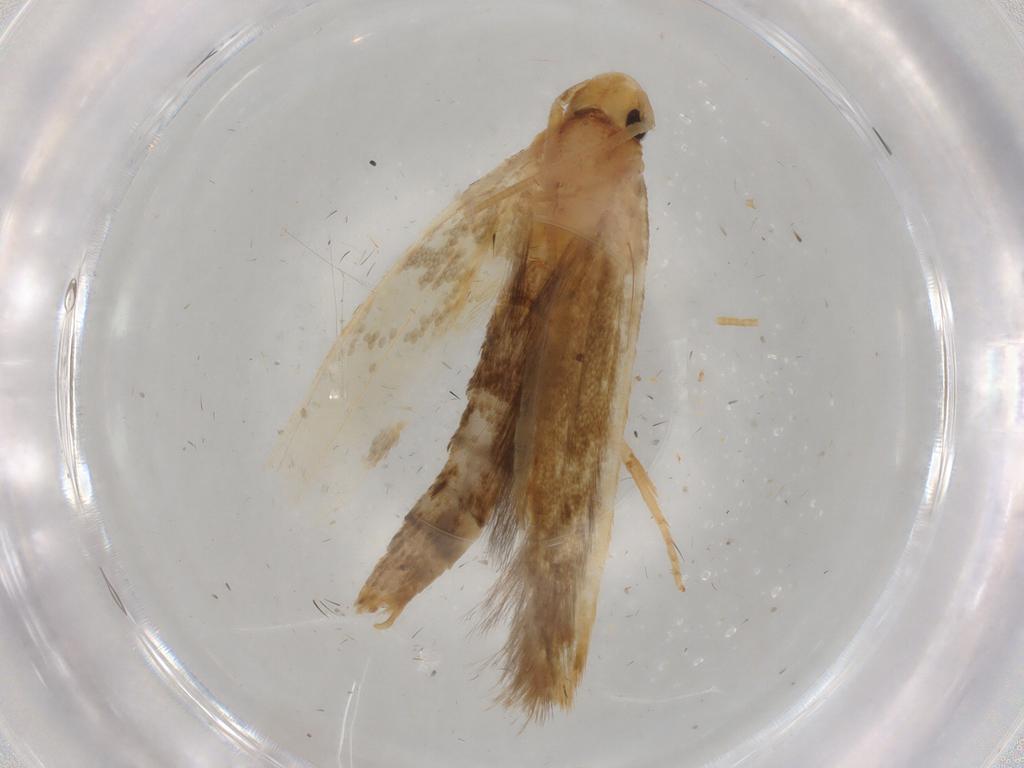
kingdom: Animalia
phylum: Arthropoda
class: Insecta
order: Lepidoptera
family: Tineidae
